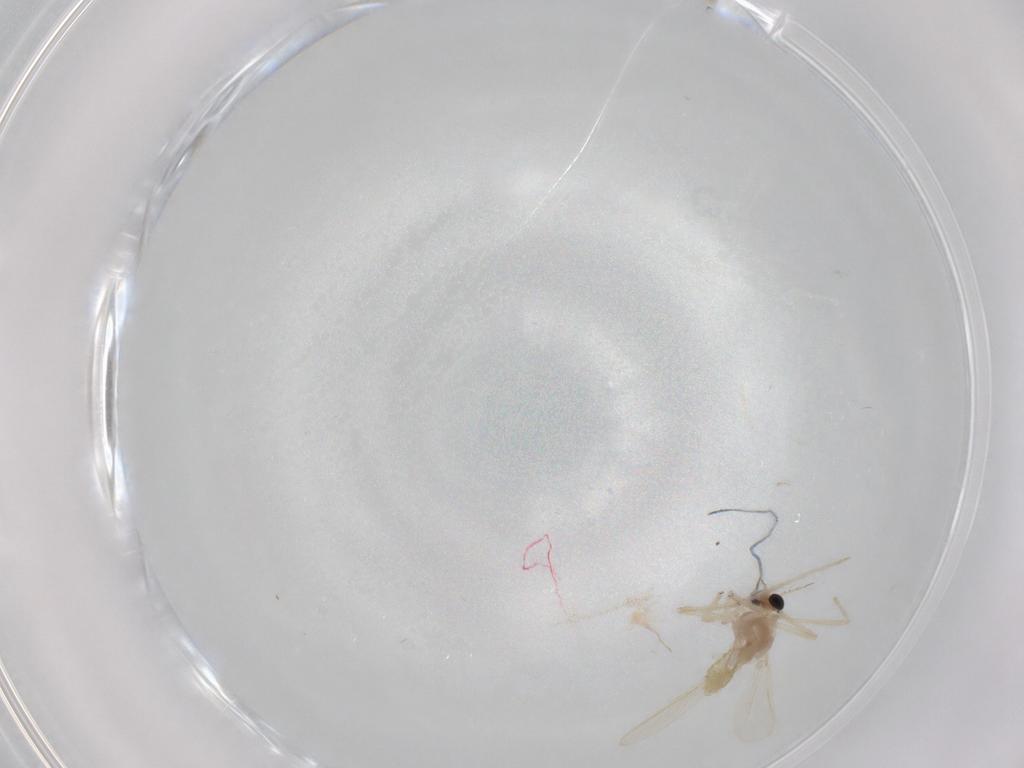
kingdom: Animalia
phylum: Arthropoda
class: Insecta
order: Diptera
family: Chironomidae
